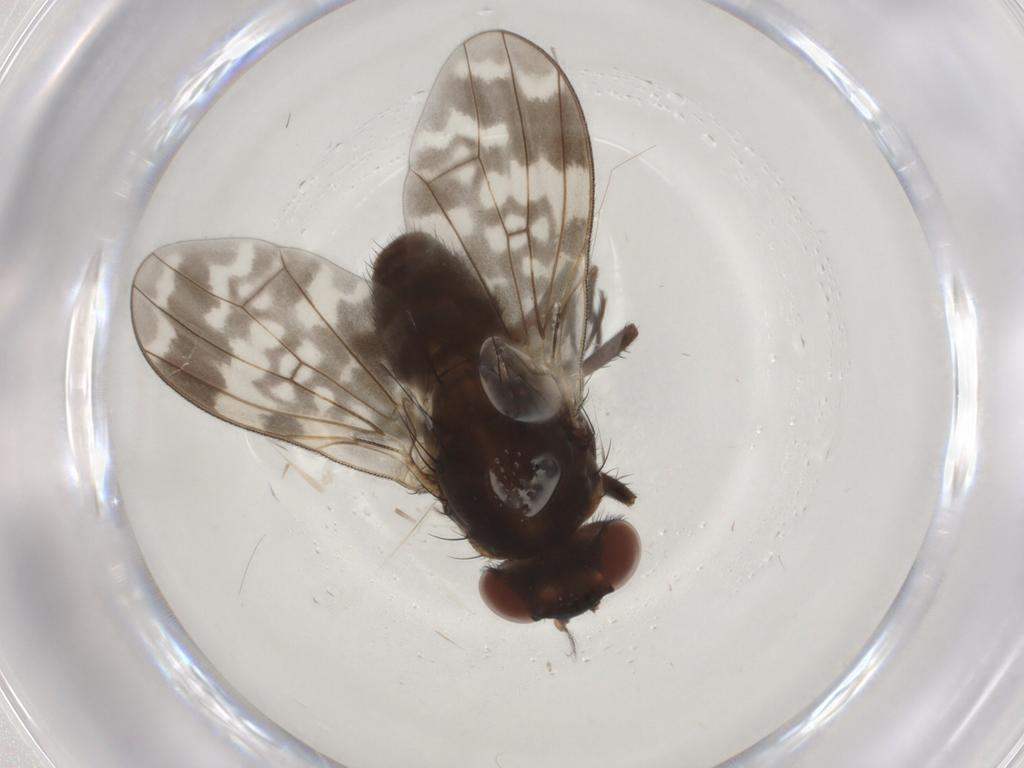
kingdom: Animalia
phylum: Arthropoda
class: Insecta
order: Diptera
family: Lauxaniidae
